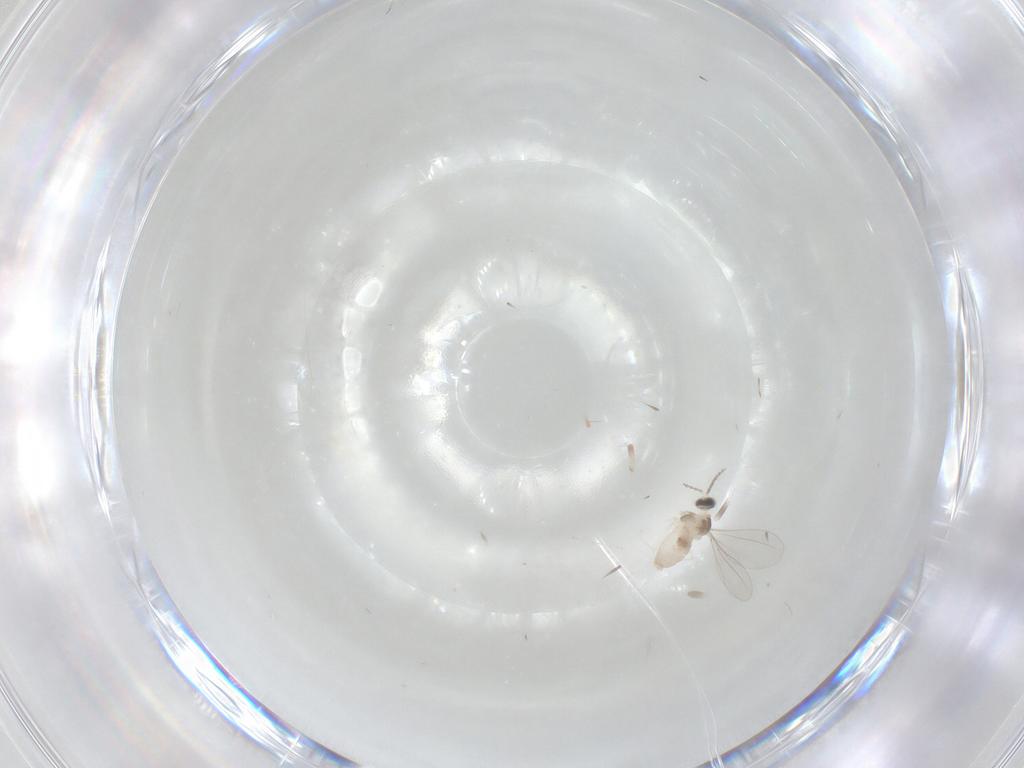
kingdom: Animalia
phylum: Arthropoda
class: Insecta
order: Diptera
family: Cecidomyiidae
